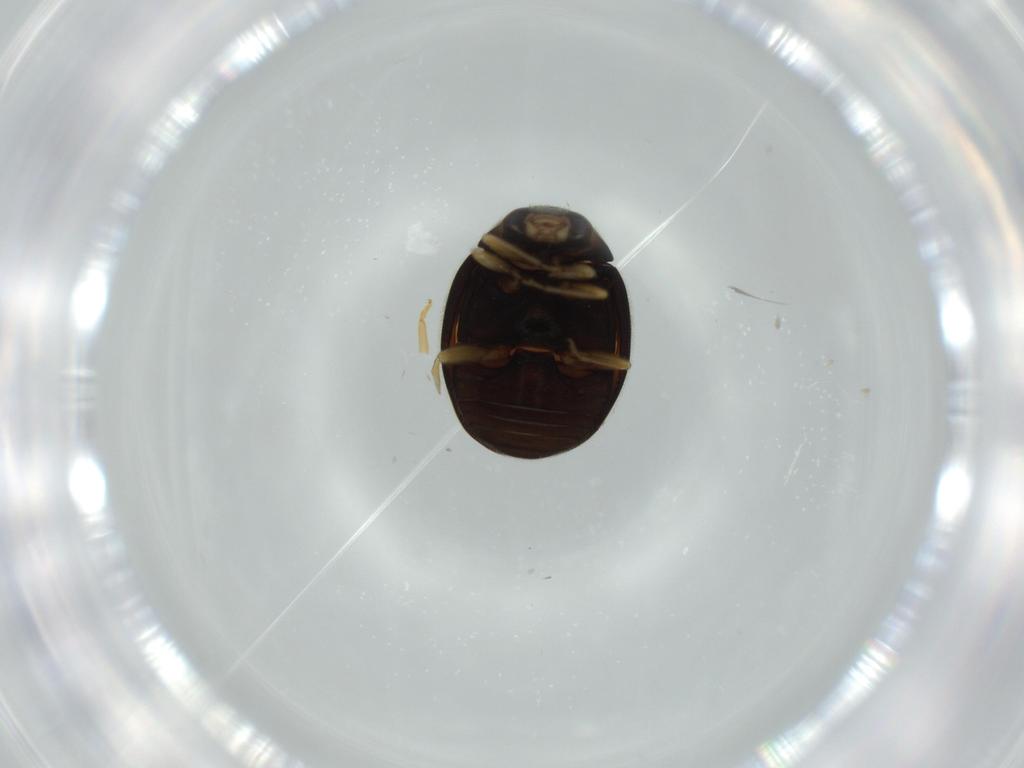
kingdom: Animalia
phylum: Arthropoda
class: Insecta
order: Coleoptera
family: Coccinellidae
